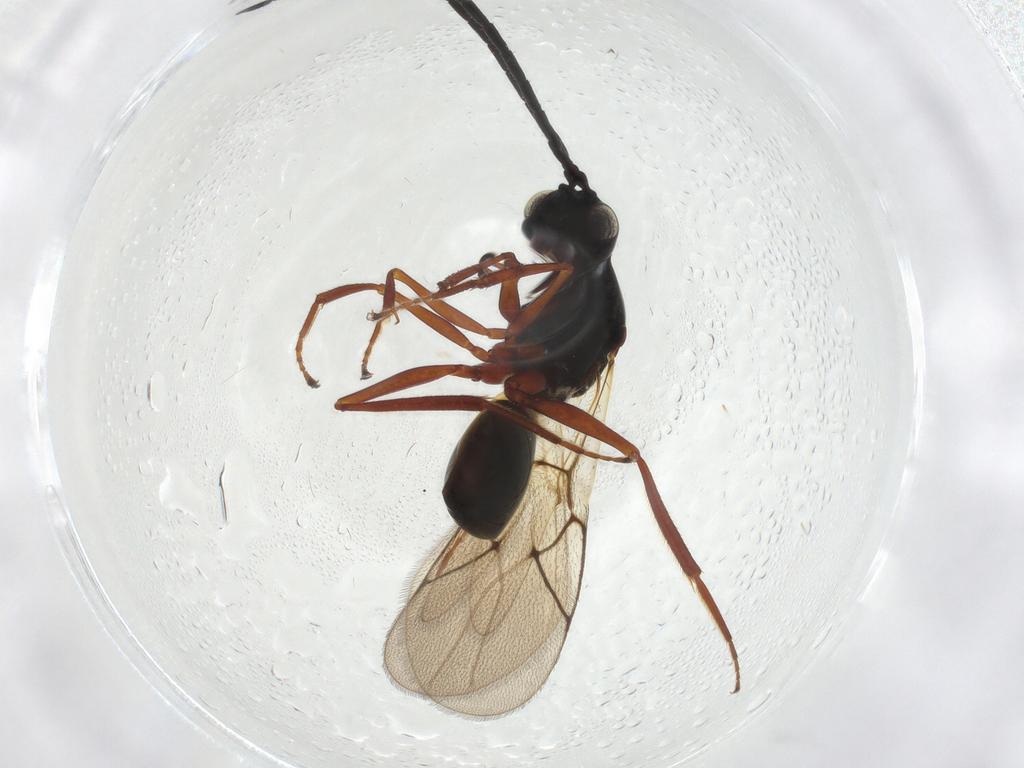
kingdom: Animalia
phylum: Arthropoda
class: Insecta
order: Hymenoptera
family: Figitidae
